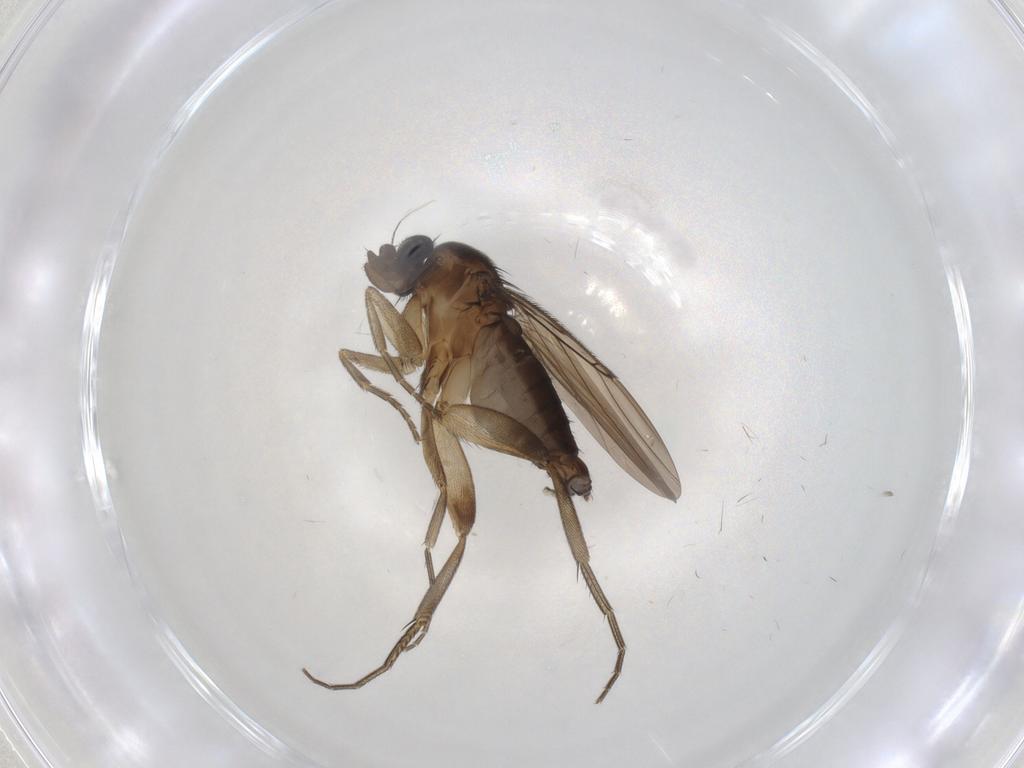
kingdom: Animalia
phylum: Arthropoda
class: Insecta
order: Diptera
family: Phoridae
